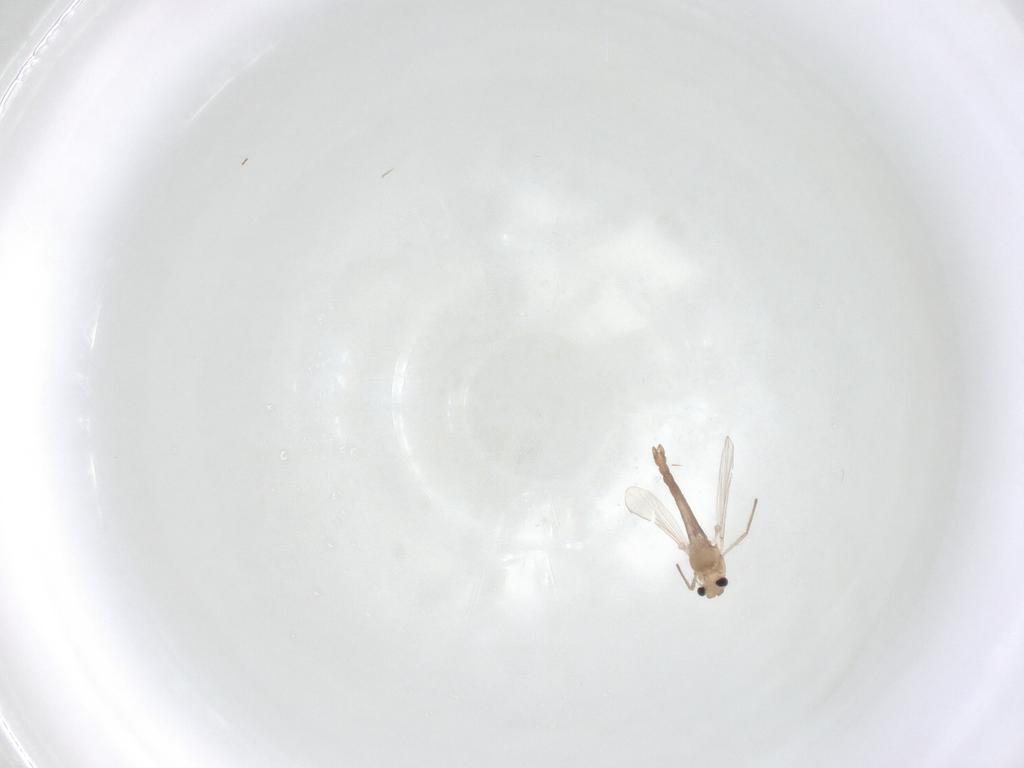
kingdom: Animalia
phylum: Arthropoda
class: Insecta
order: Diptera
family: Chironomidae
